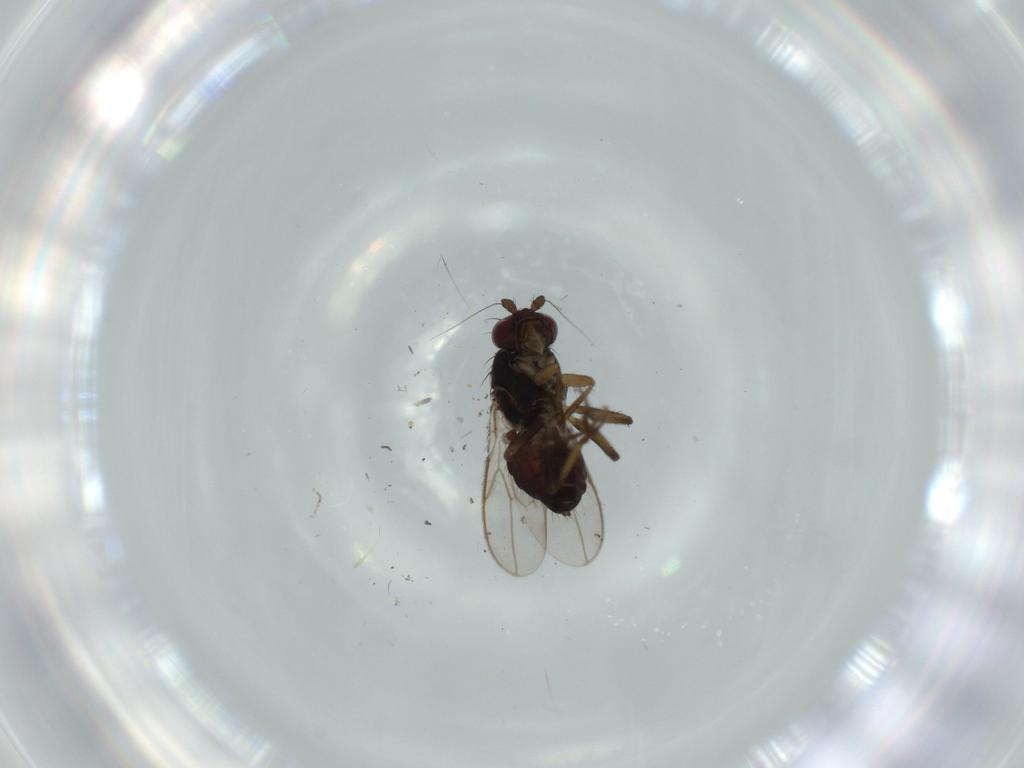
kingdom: Animalia
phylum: Arthropoda
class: Insecta
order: Diptera
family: Sphaeroceridae
